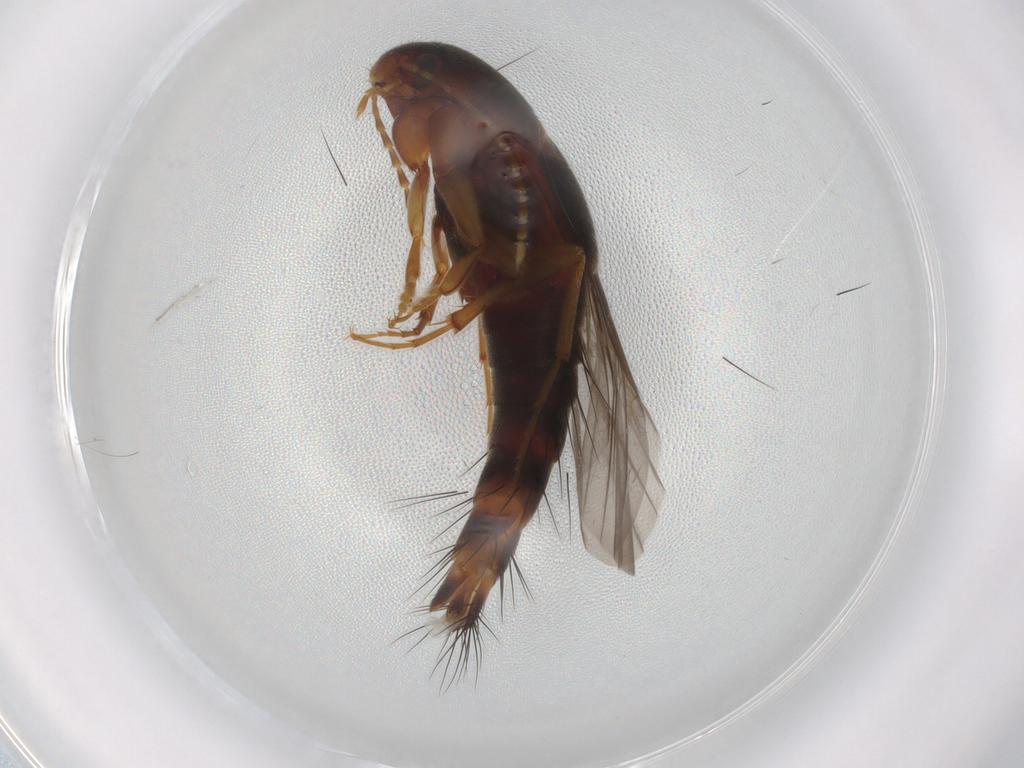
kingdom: Animalia
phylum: Arthropoda
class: Insecta
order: Coleoptera
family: Staphylinidae
